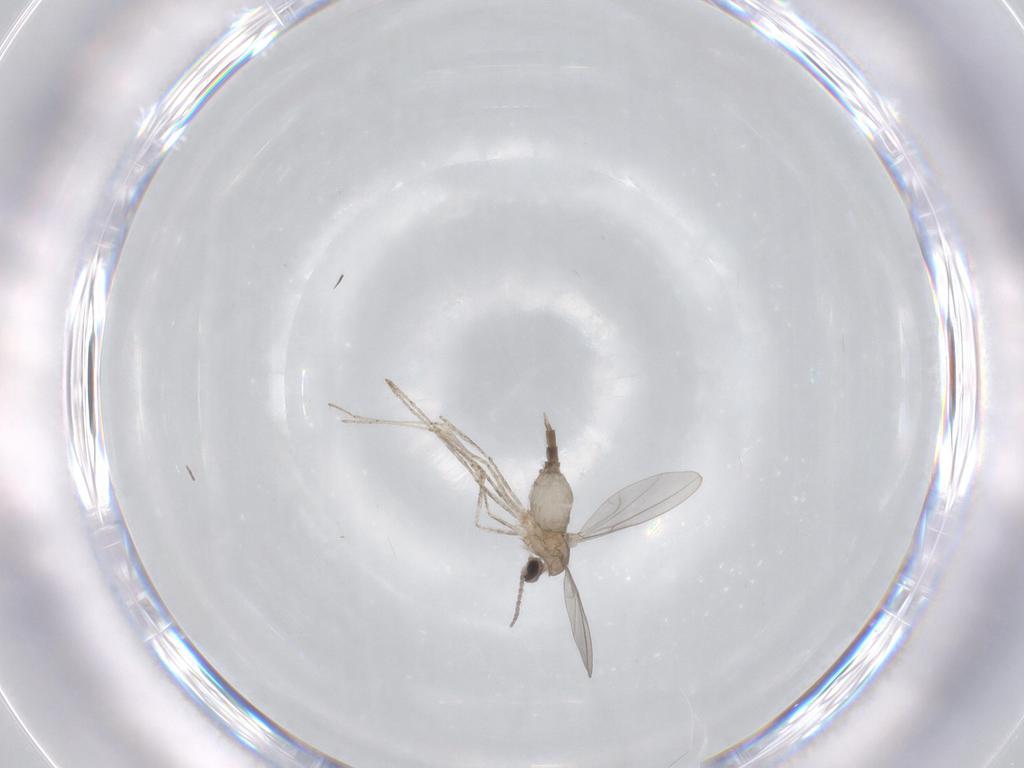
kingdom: Animalia
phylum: Arthropoda
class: Insecta
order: Diptera
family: Cecidomyiidae
